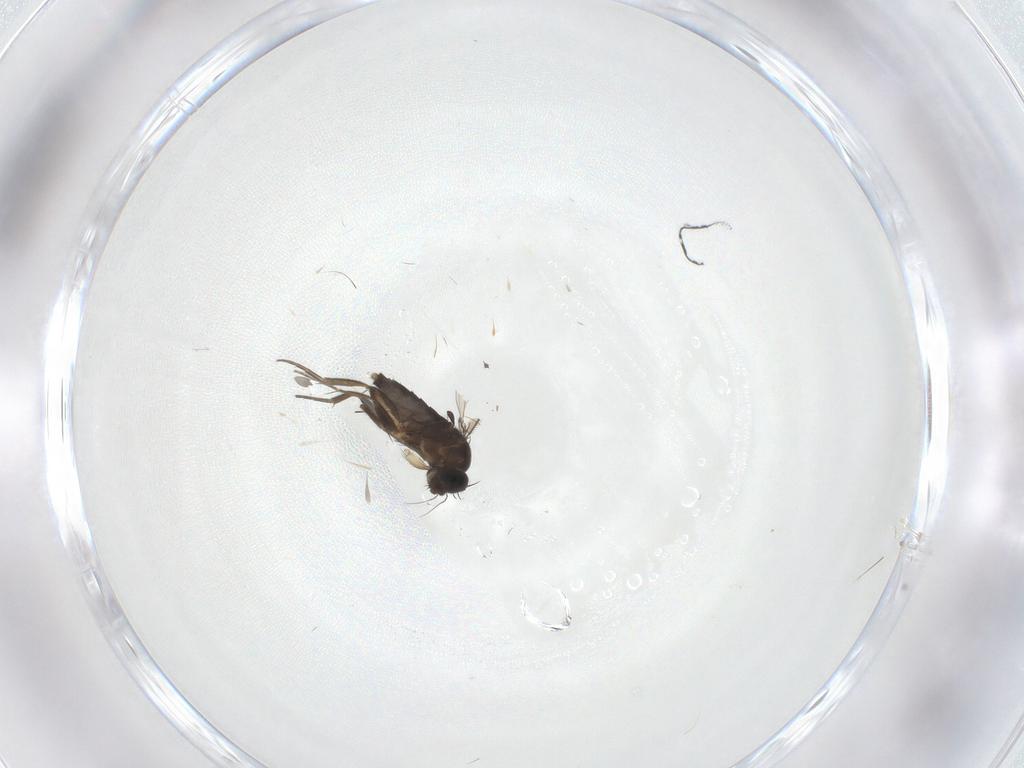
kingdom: Animalia
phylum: Arthropoda
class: Insecta
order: Diptera
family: Phoridae
